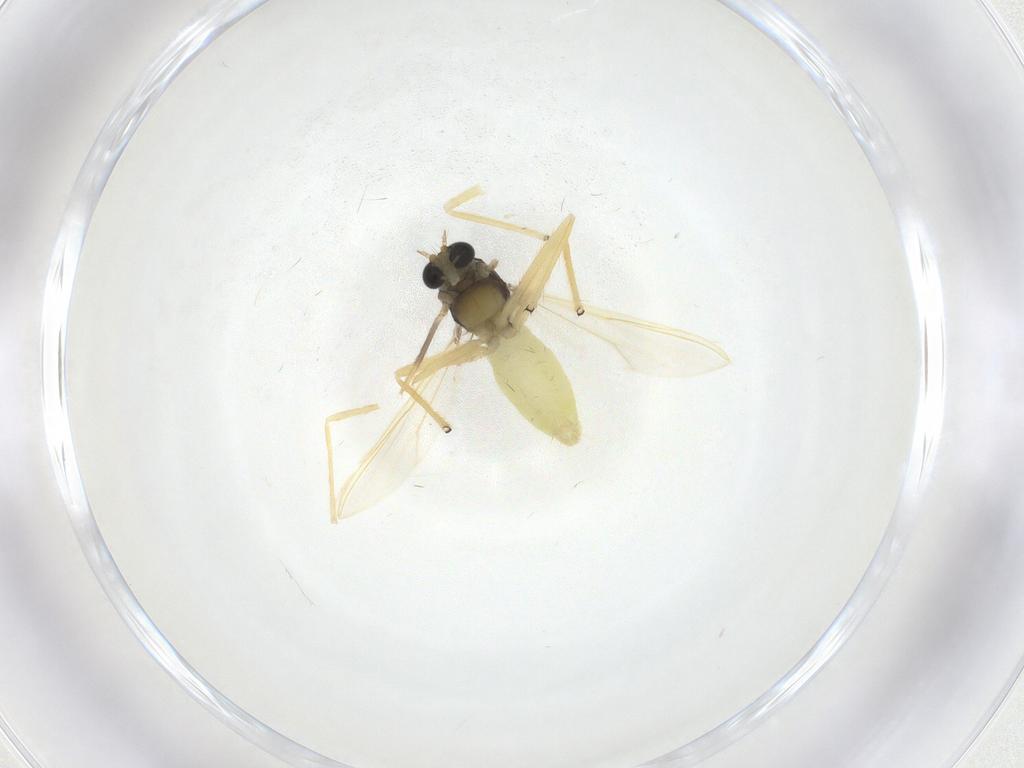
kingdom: Animalia
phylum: Arthropoda
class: Insecta
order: Diptera
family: Chironomidae
